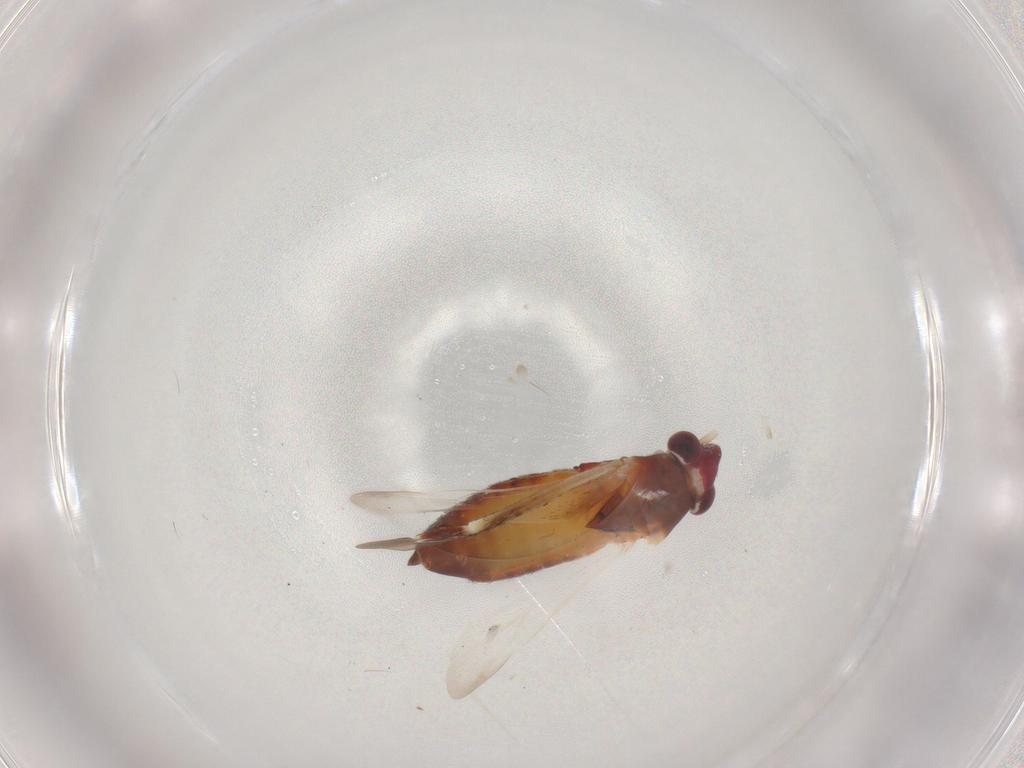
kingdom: Animalia
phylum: Arthropoda
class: Insecta
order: Hemiptera
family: Miridae
